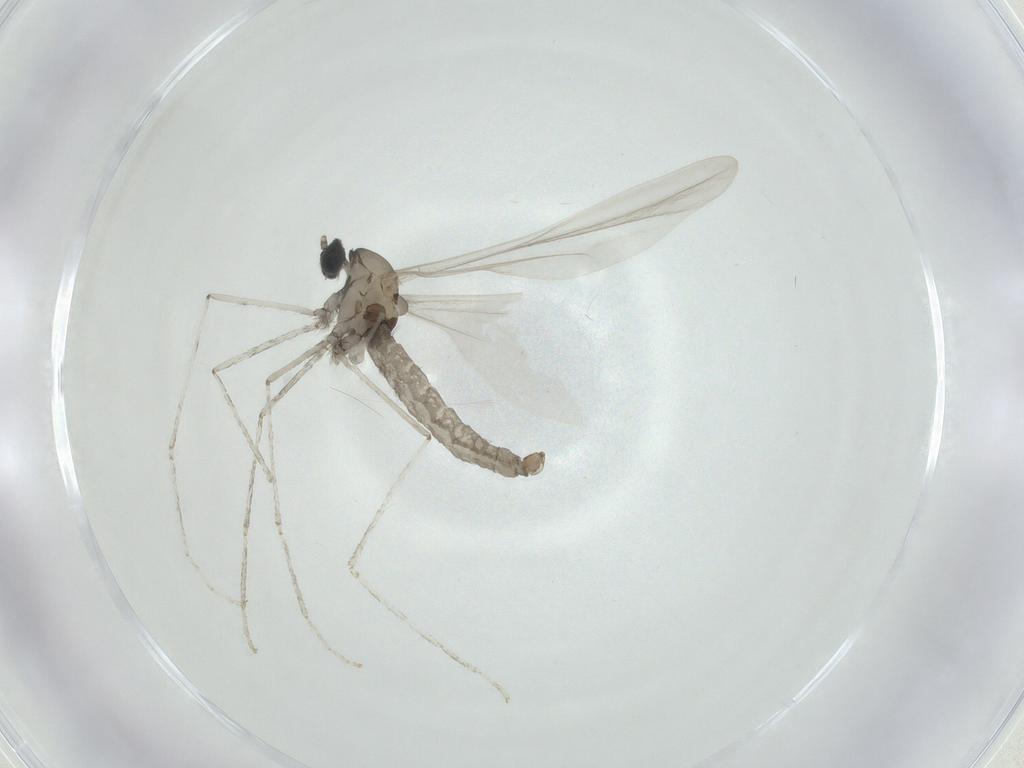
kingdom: Animalia
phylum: Arthropoda
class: Insecta
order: Diptera
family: Cecidomyiidae
